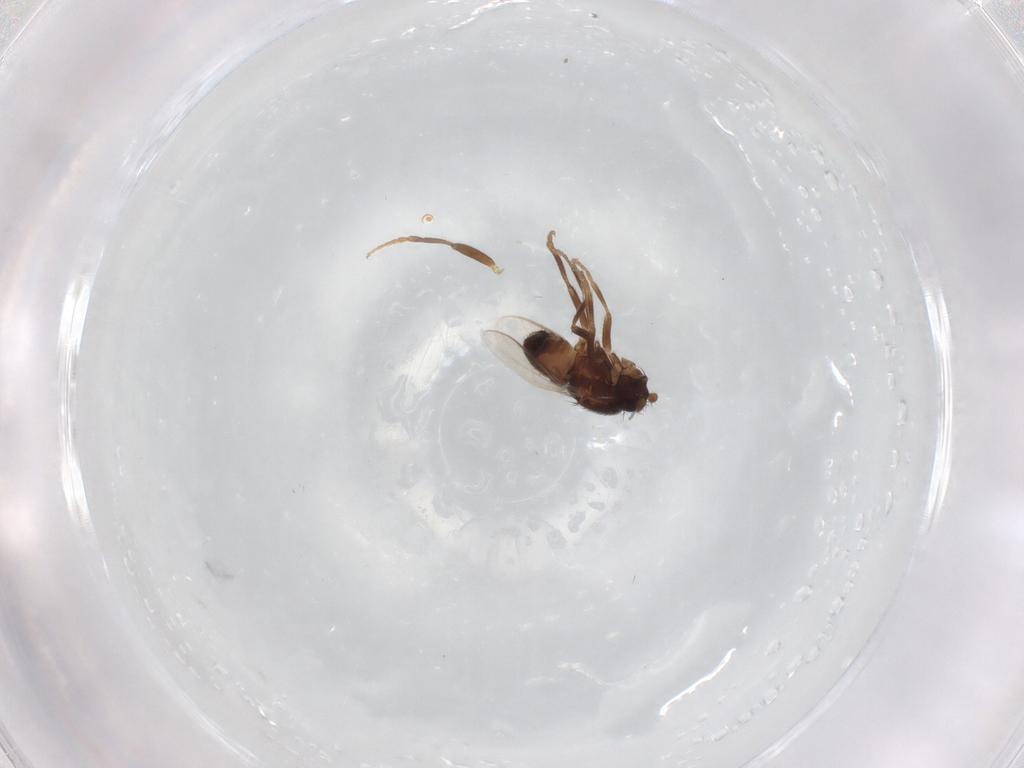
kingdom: Animalia
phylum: Arthropoda
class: Insecta
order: Diptera
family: Sphaeroceridae
